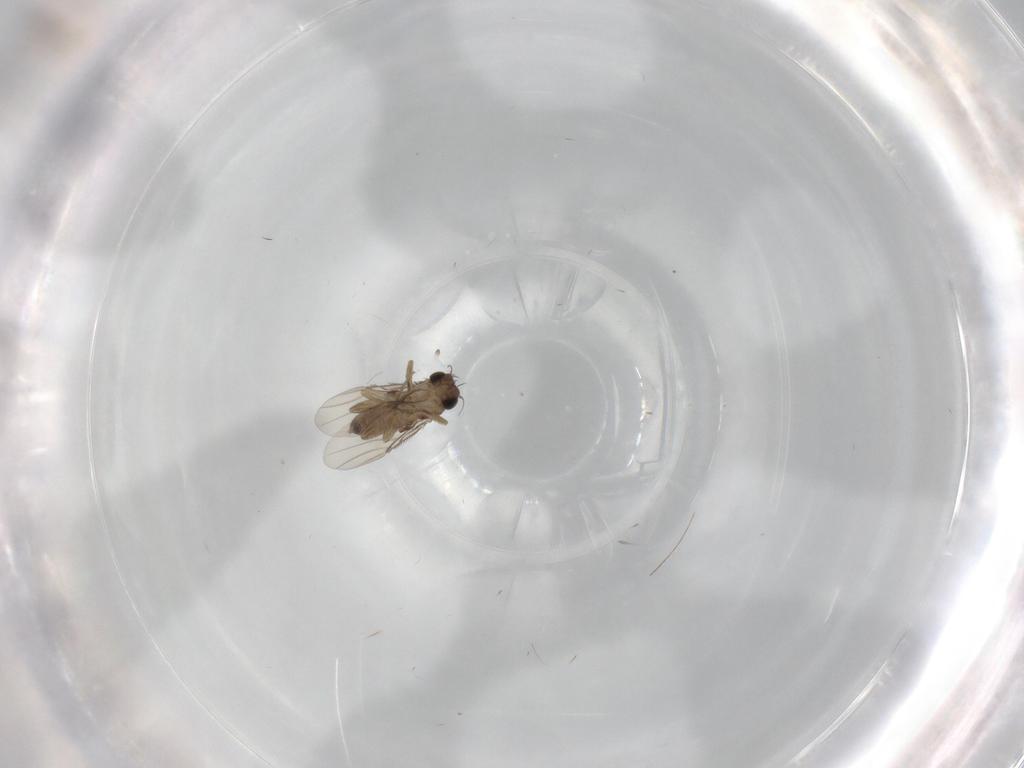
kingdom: Animalia
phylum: Arthropoda
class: Insecta
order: Diptera
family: Phoridae
